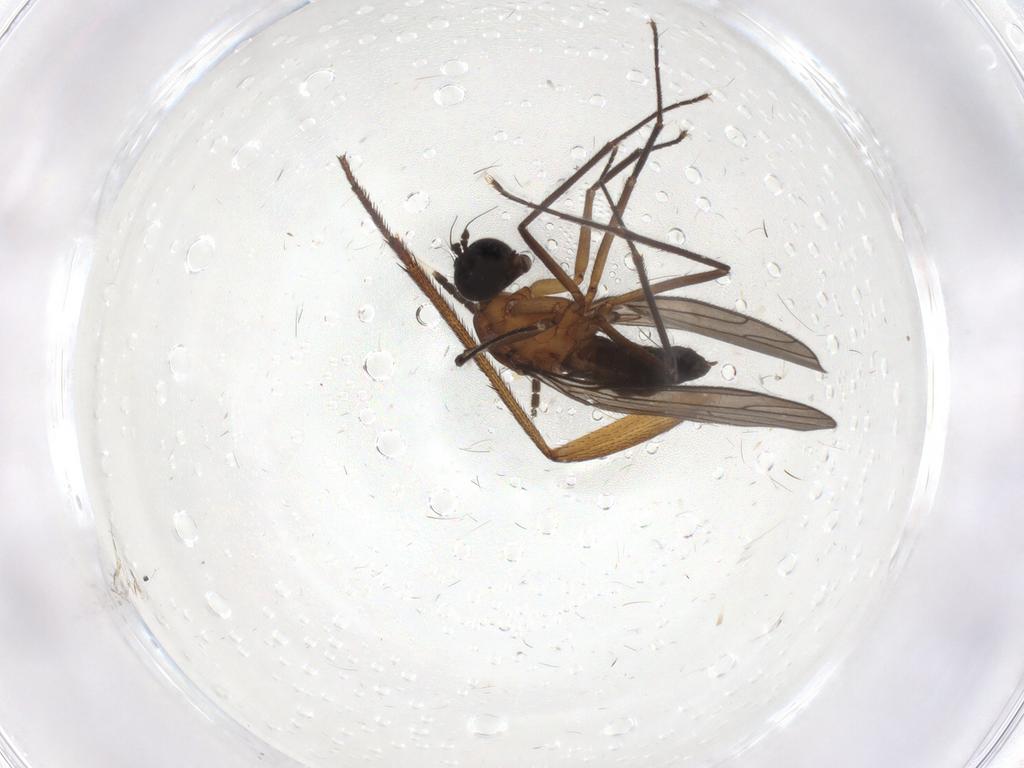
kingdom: Animalia
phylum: Arthropoda
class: Insecta
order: Diptera
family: Chironomidae
